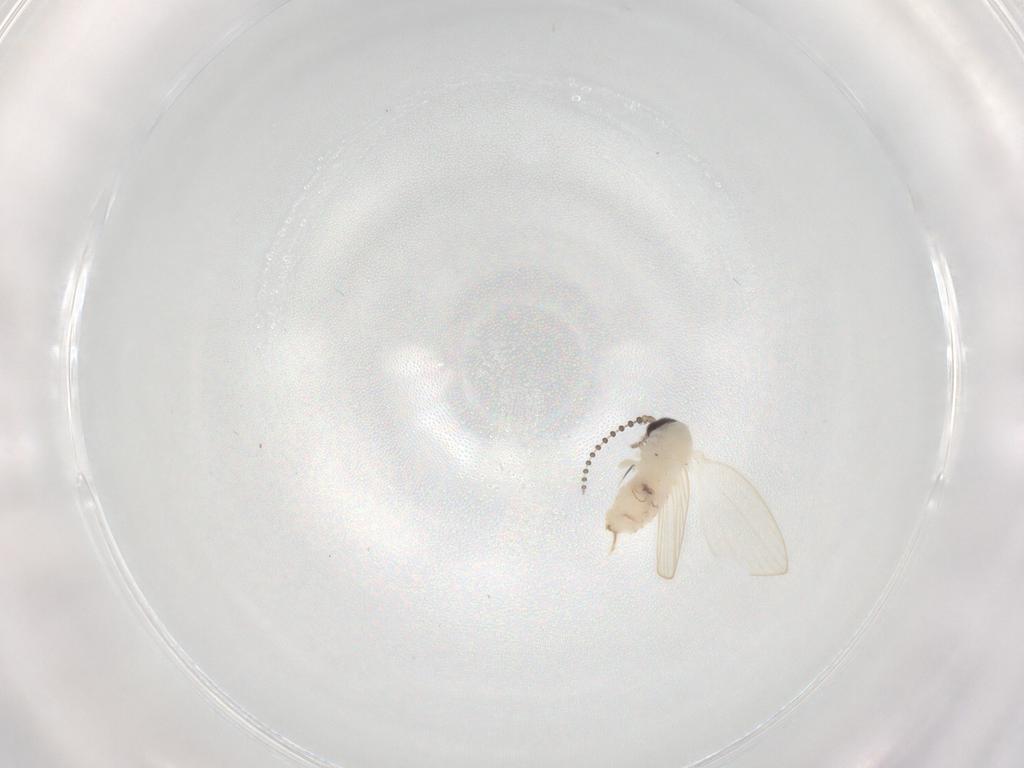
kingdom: Animalia
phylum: Arthropoda
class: Insecta
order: Diptera
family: Psychodidae
